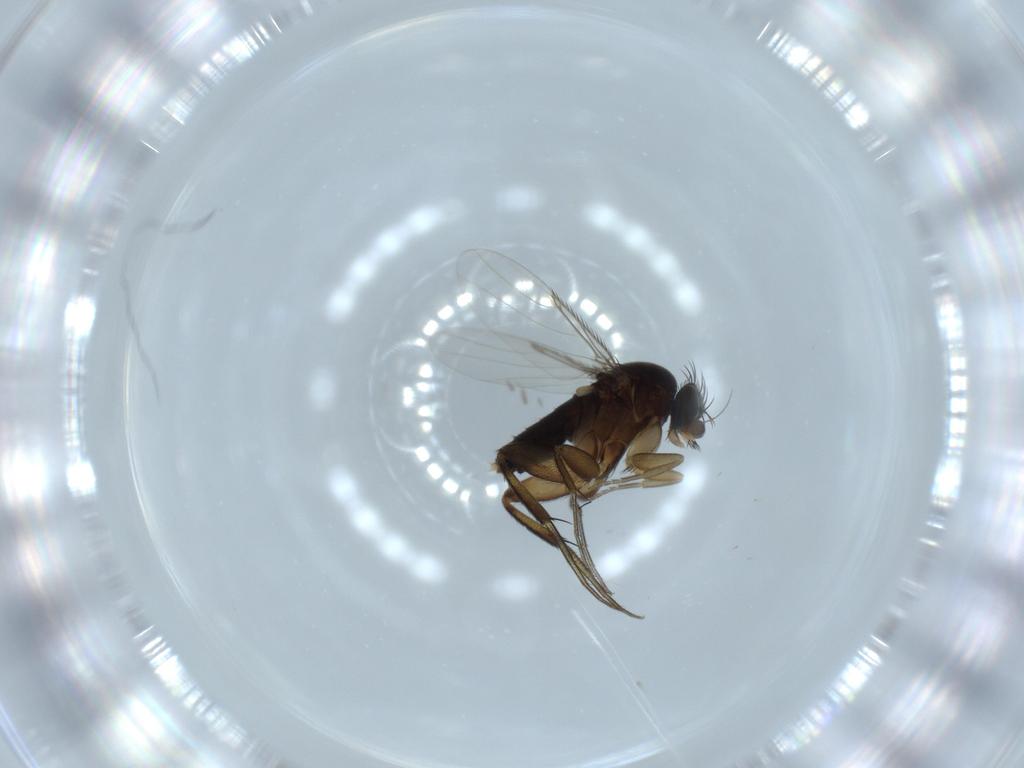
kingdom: Animalia
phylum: Arthropoda
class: Insecta
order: Diptera
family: Phoridae
